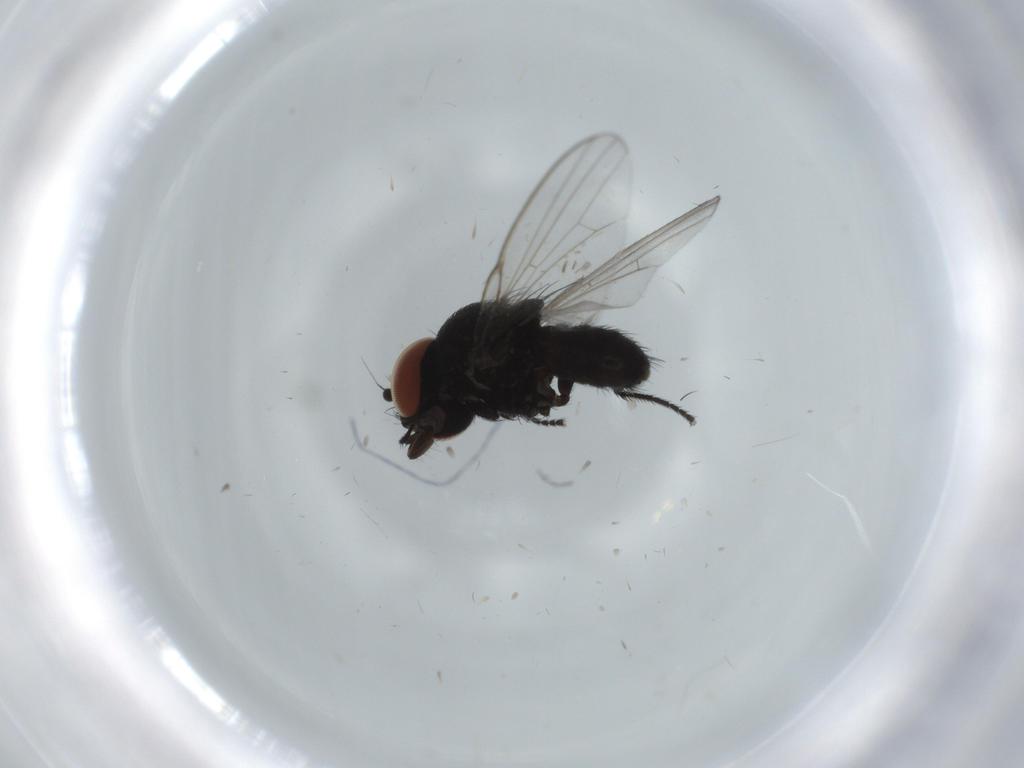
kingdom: Animalia
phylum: Arthropoda
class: Insecta
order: Diptera
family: Milichiidae
